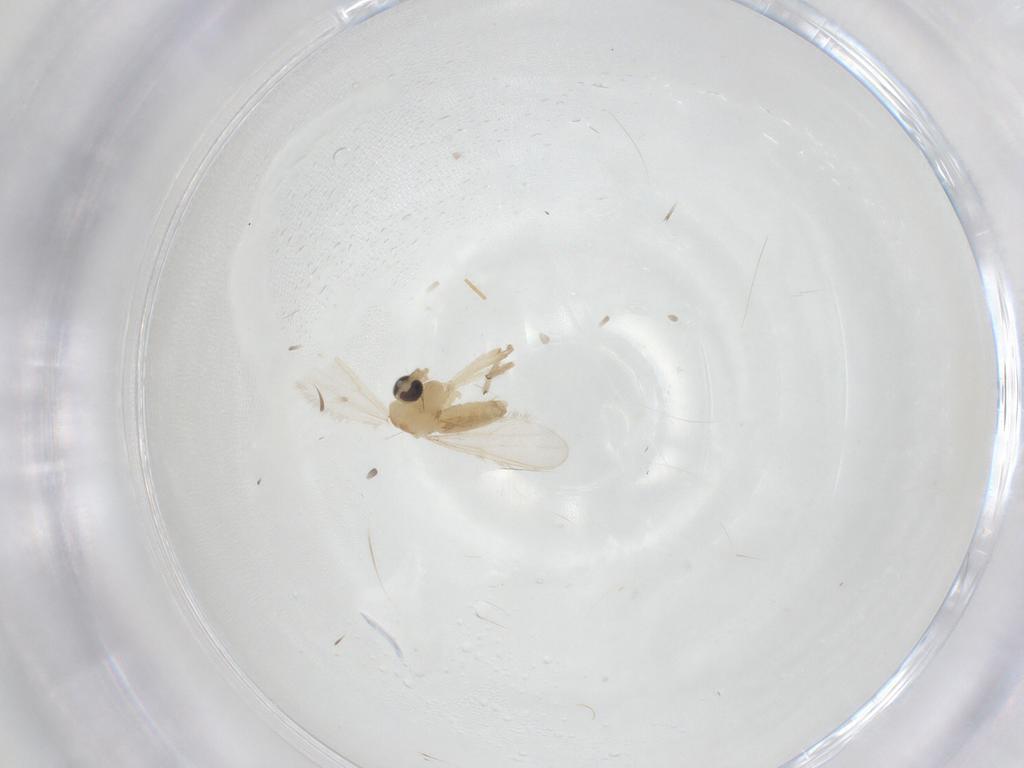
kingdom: Animalia
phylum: Arthropoda
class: Insecta
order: Diptera
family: Chironomidae
